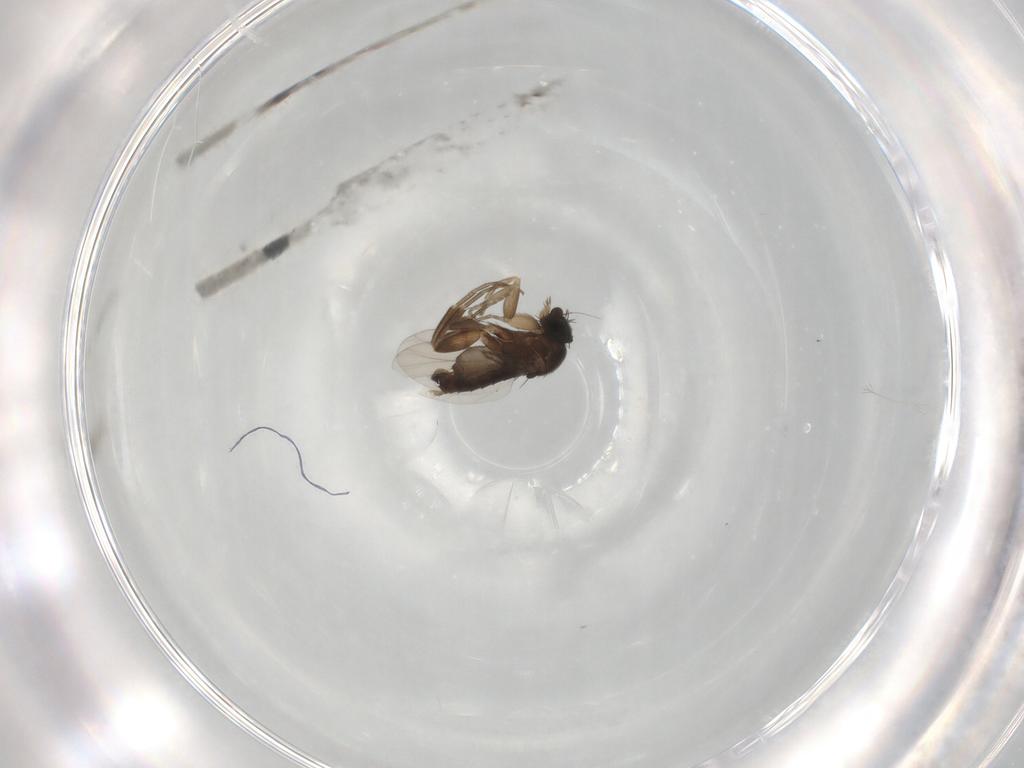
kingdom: Animalia
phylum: Arthropoda
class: Insecta
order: Diptera
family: Phoridae
